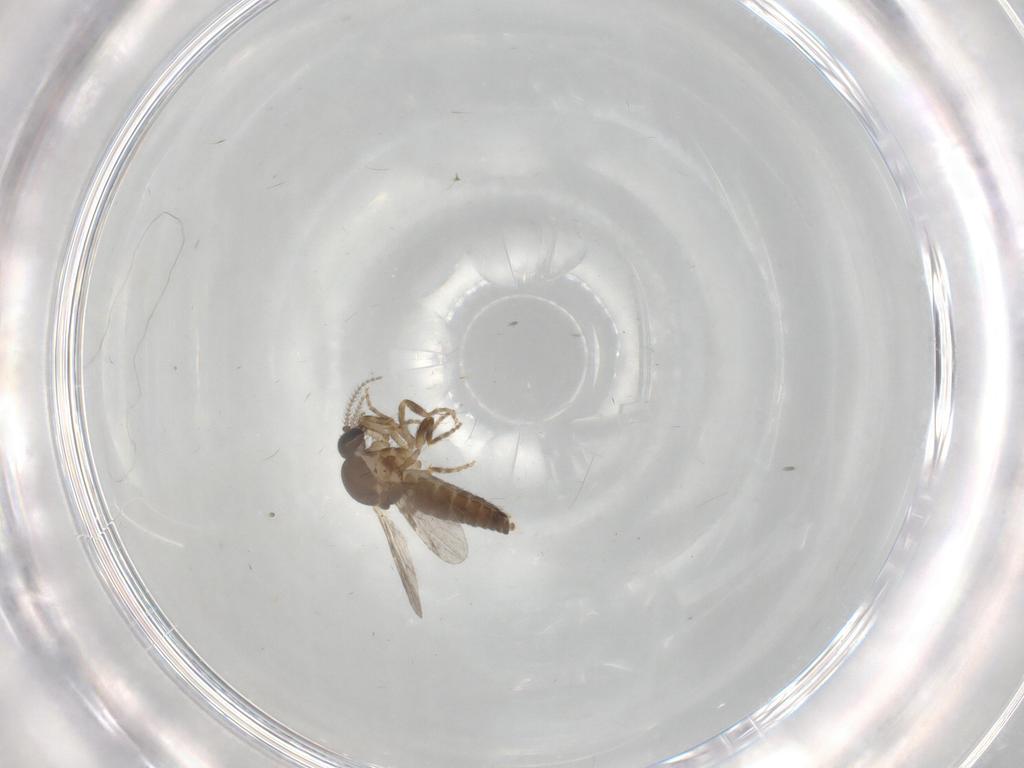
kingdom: Animalia
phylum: Arthropoda
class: Insecta
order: Diptera
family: Ceratopogonidae
